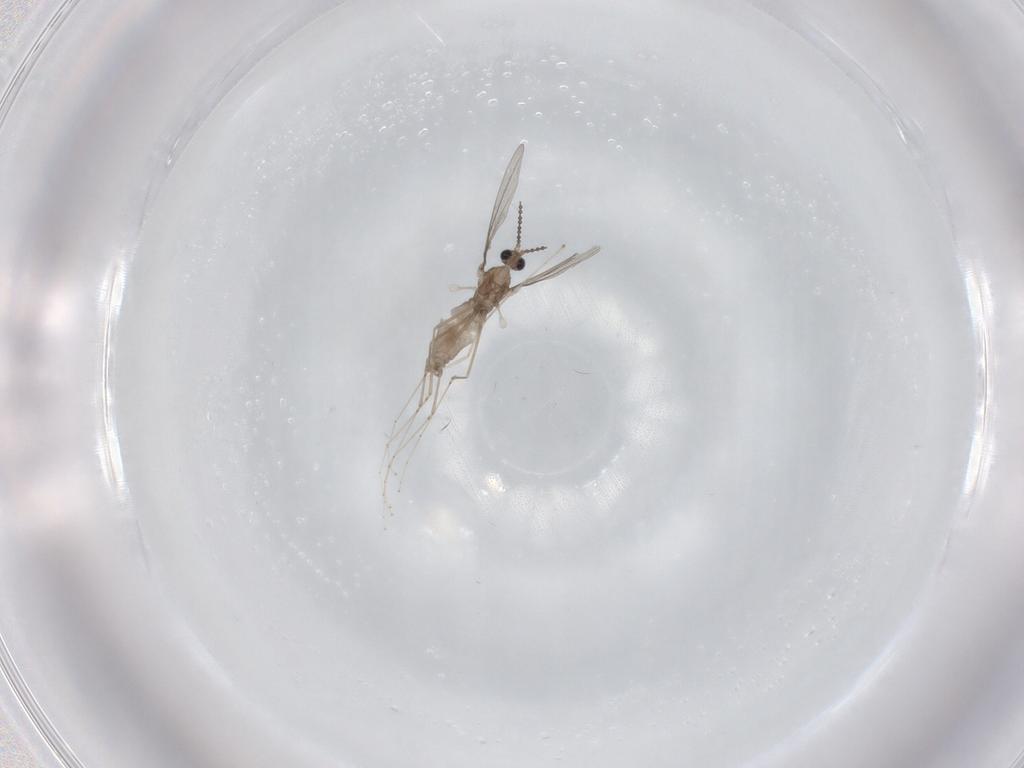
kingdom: Animalia
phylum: Arthropoda
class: Insecta
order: Diptera
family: Cecidomyiidae
